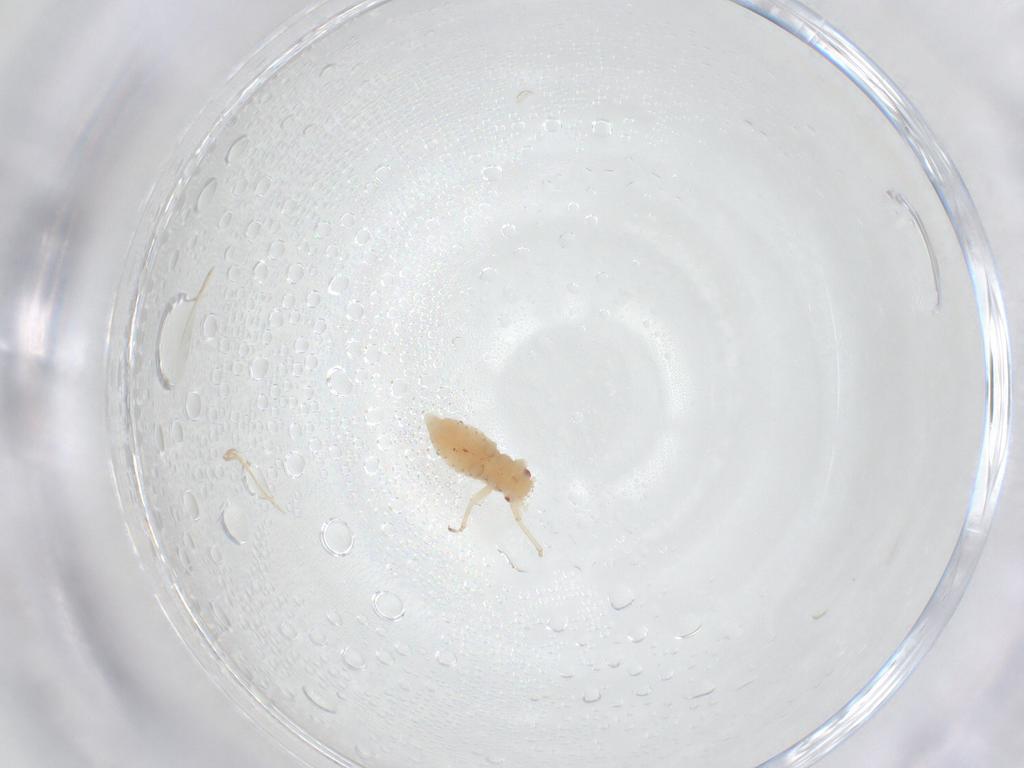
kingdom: Animalia
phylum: Arthropoda
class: Insecta
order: Hemiptera
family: Aphididae
